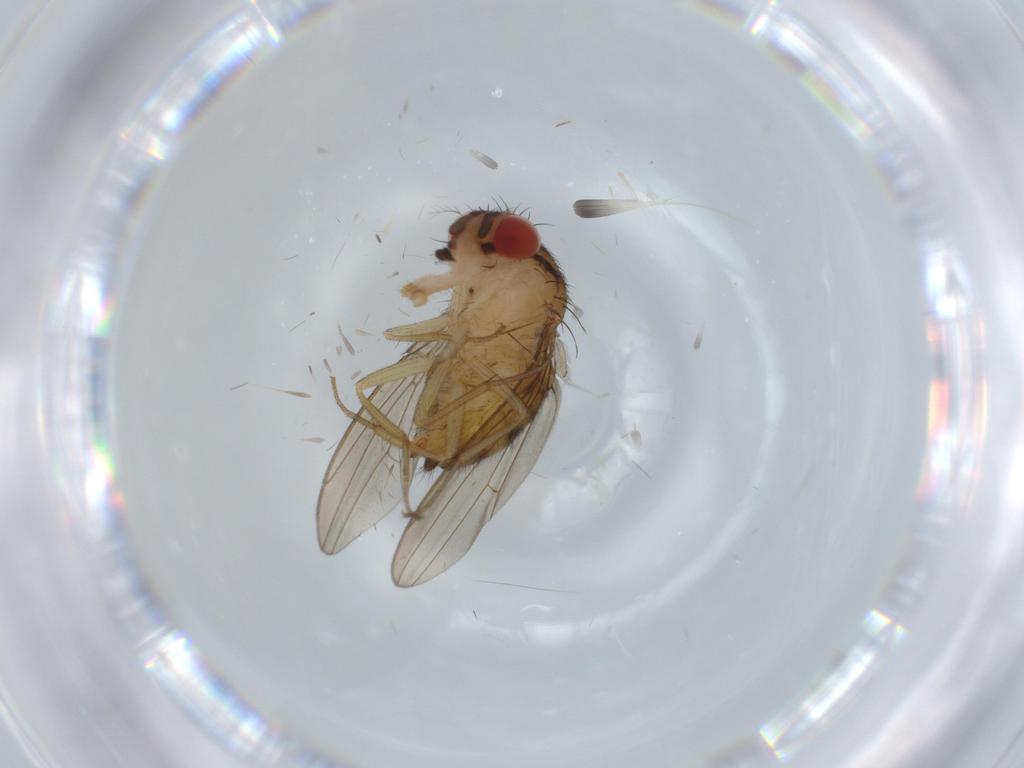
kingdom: Animalia
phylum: Arthropoda
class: Insecta
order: Diptera
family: Drosophilidae
